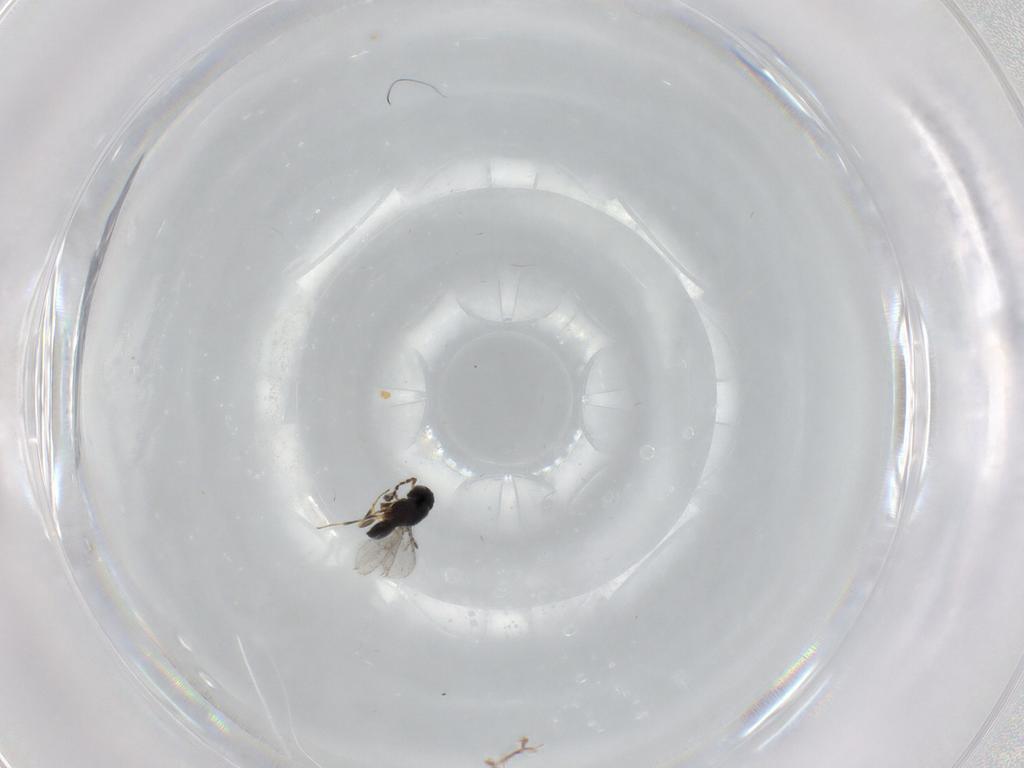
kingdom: Animalia
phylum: Arthropoda
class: Insecta
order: Hymenoptera
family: Scelionidae
